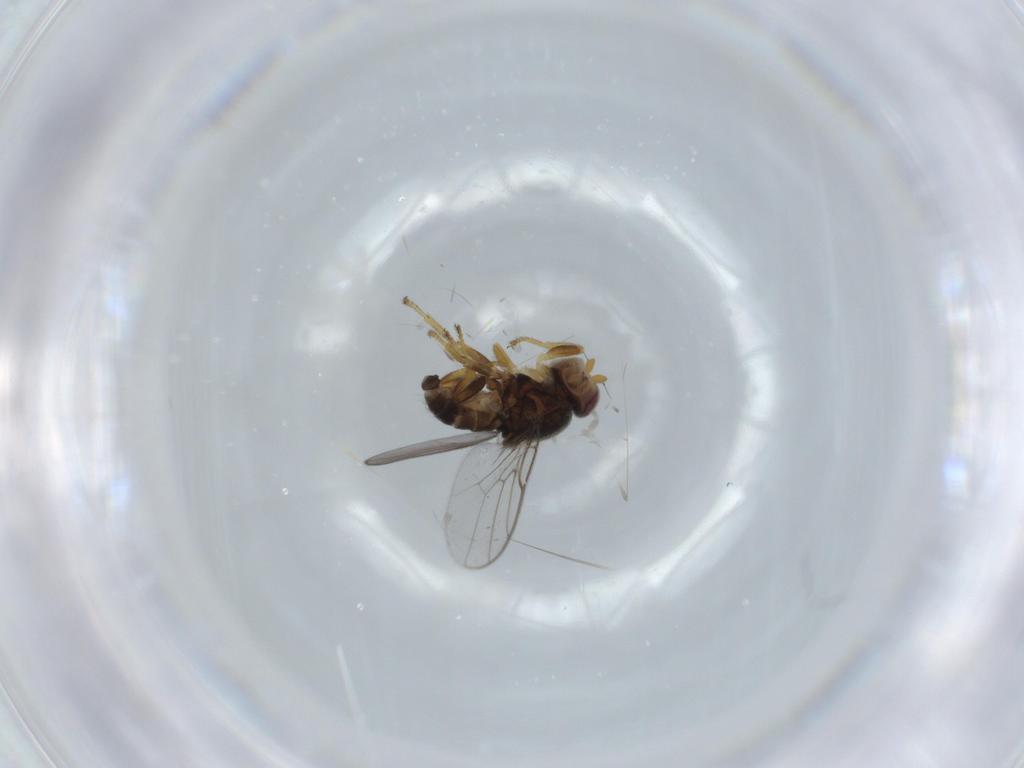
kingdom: Animalia
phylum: Arthropoda
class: Insecta
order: Diptera
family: Chloropidae
